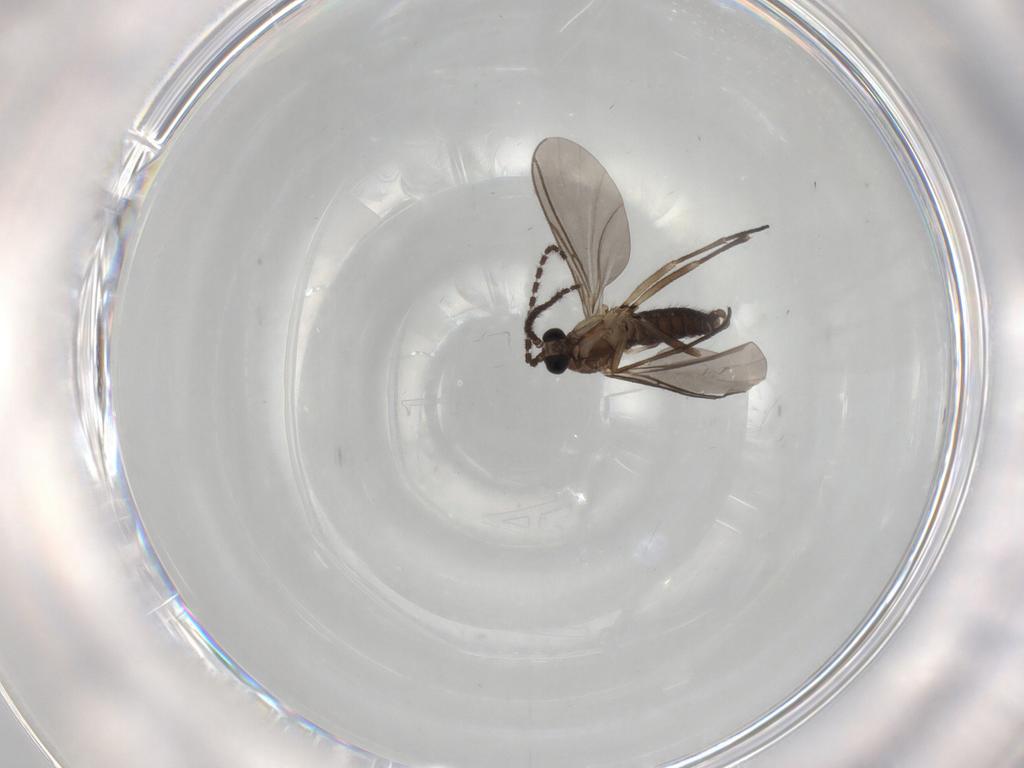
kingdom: Animalia
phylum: Arthropoda
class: Insecta
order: Diptera
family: Sciaridae
